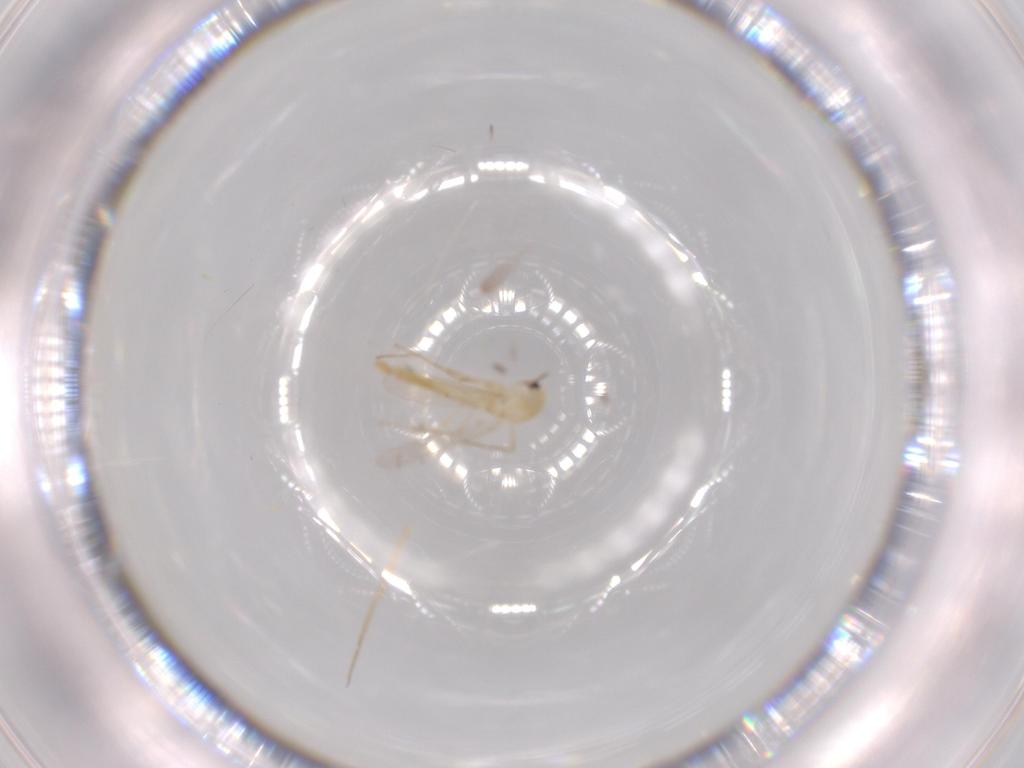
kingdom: Animalia
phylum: Arthropoda
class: Insecta
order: Diptera
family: Chironomidae
